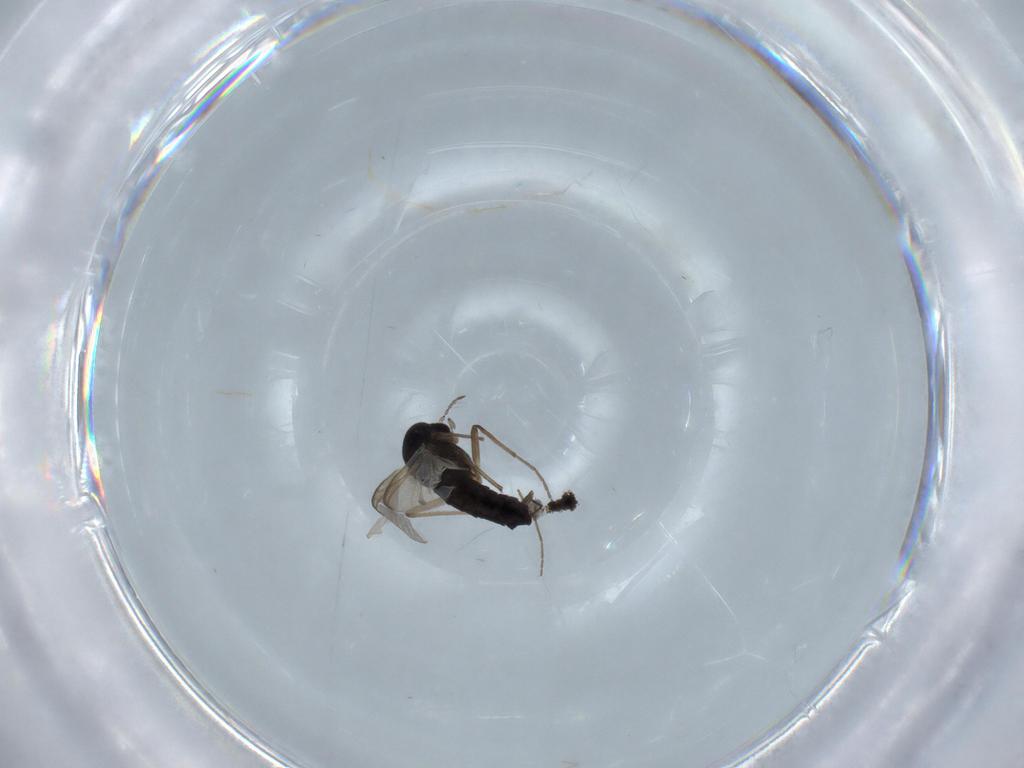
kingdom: Animalia
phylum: Arthropoda
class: Insecta
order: Diptera
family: Chironomidae
